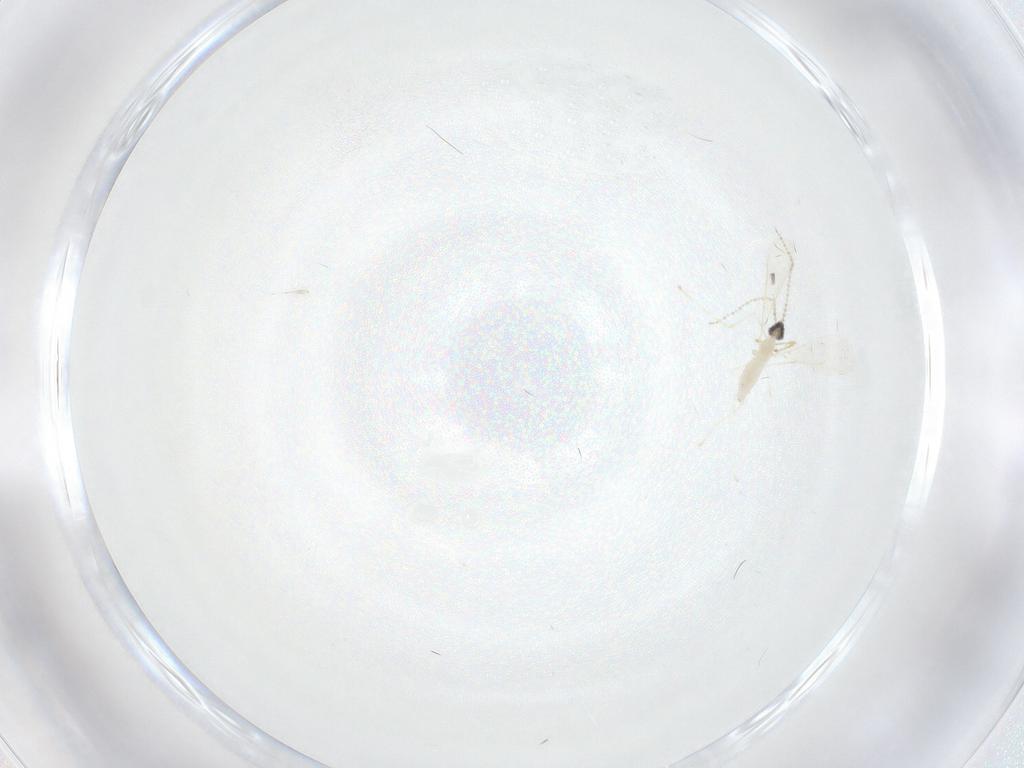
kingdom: Animalia
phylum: Arthropoda
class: Insecta
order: Diptera
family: Cecidomyiidae
